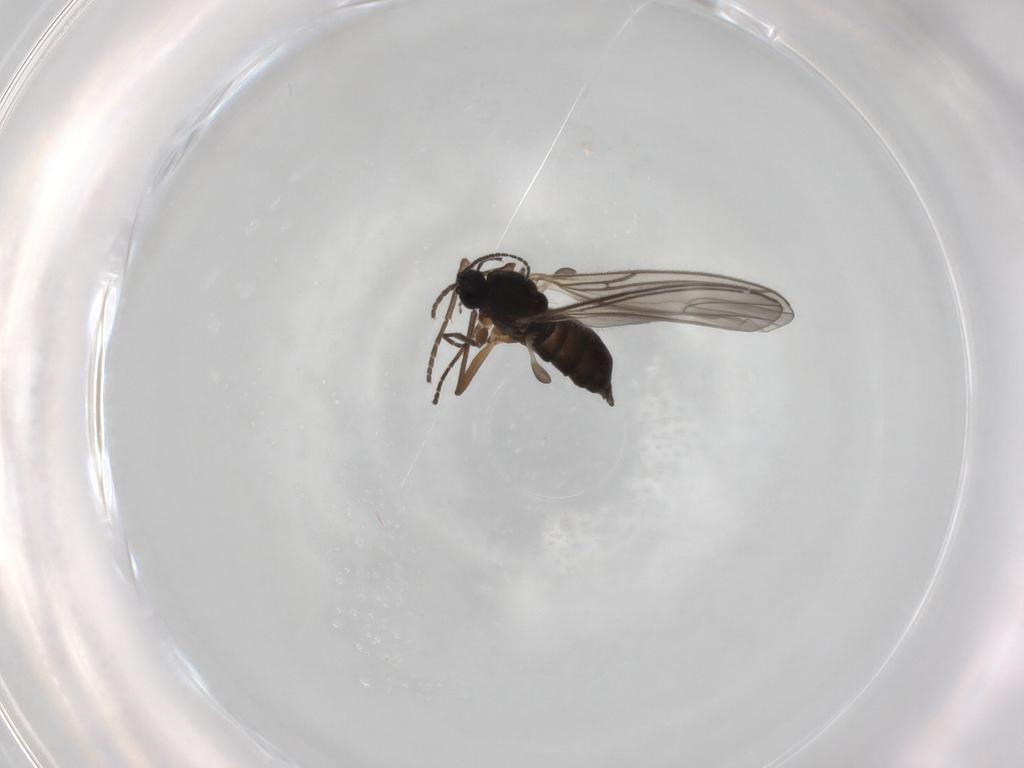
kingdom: Animalia
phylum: Arthropoda
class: Insecta
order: Diptera
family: Sciaridae
